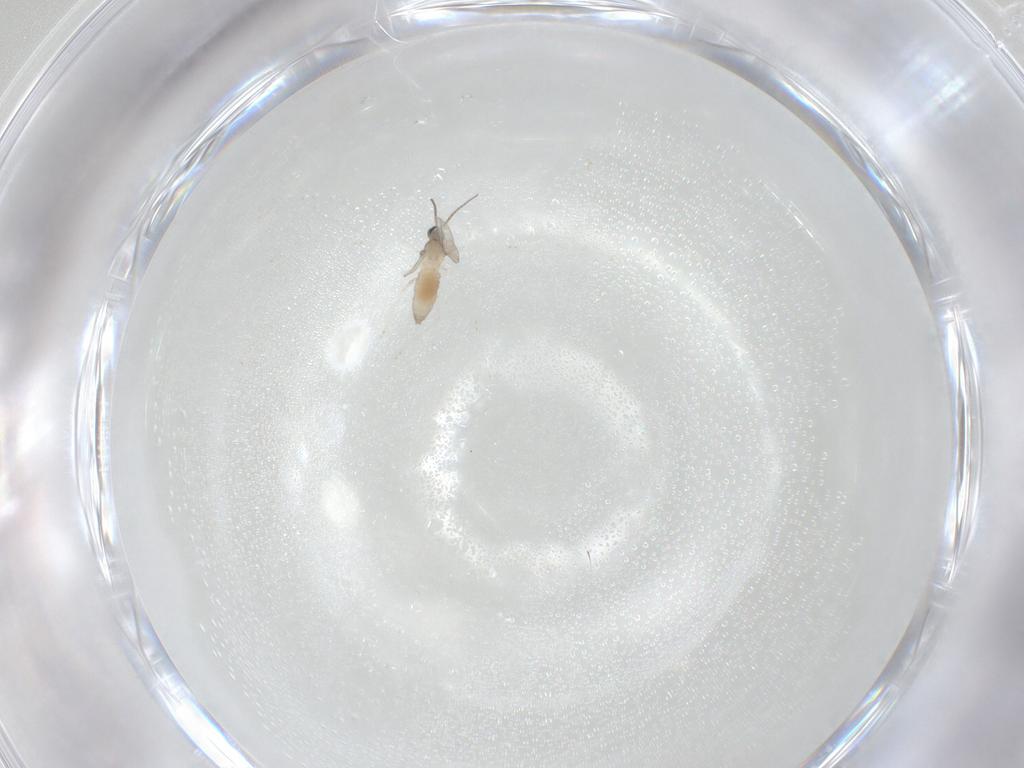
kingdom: Animalia
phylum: Arthropoda
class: Insecta
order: Diptera
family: Cecidomyiidae
